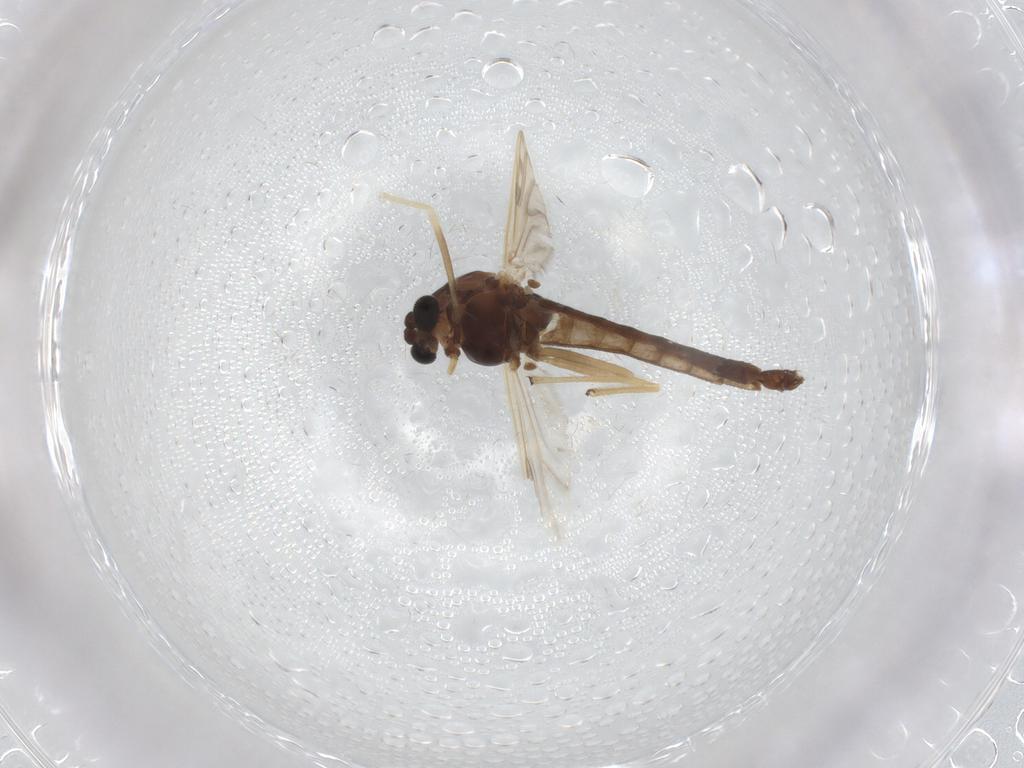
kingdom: Animalia
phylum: Arthropoda
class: Insecta
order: Diptera
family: Chironomidae
